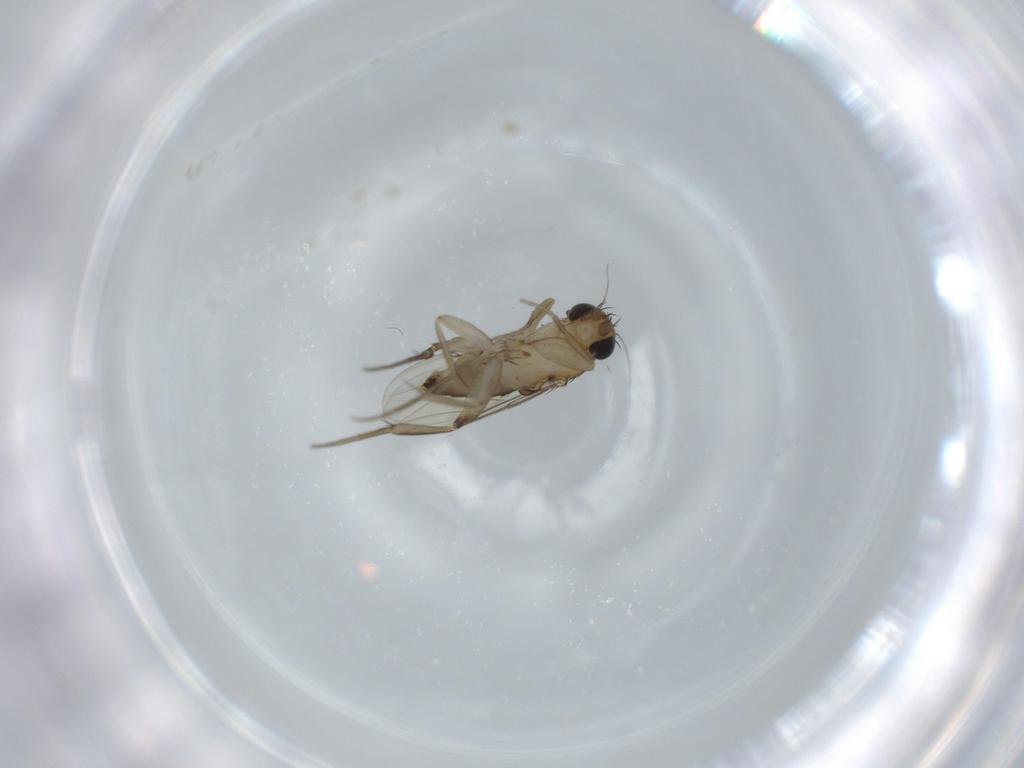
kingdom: Animalia
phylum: Arthropoda
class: Insecta
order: Diptera
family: Phoridae
